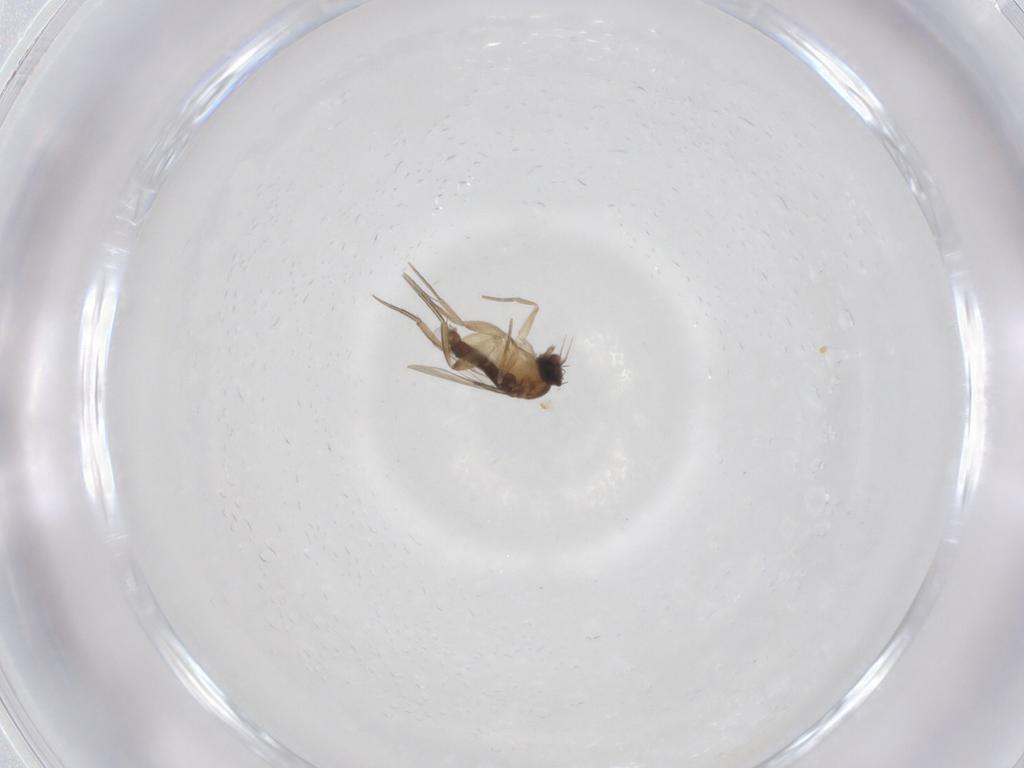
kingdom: Animalia
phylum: Arthropoda
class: Insecta
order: Diptera
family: Phoridae
